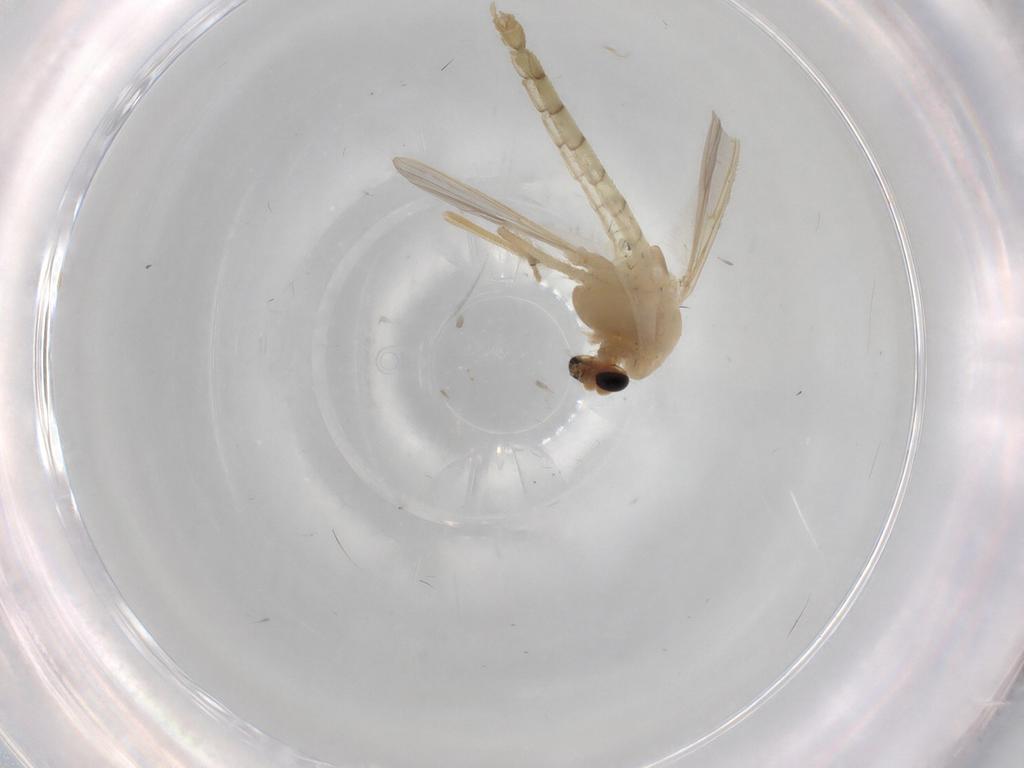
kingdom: Animalia
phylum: Arthropoda
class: Insecta
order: Diptera
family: Chironomidae
